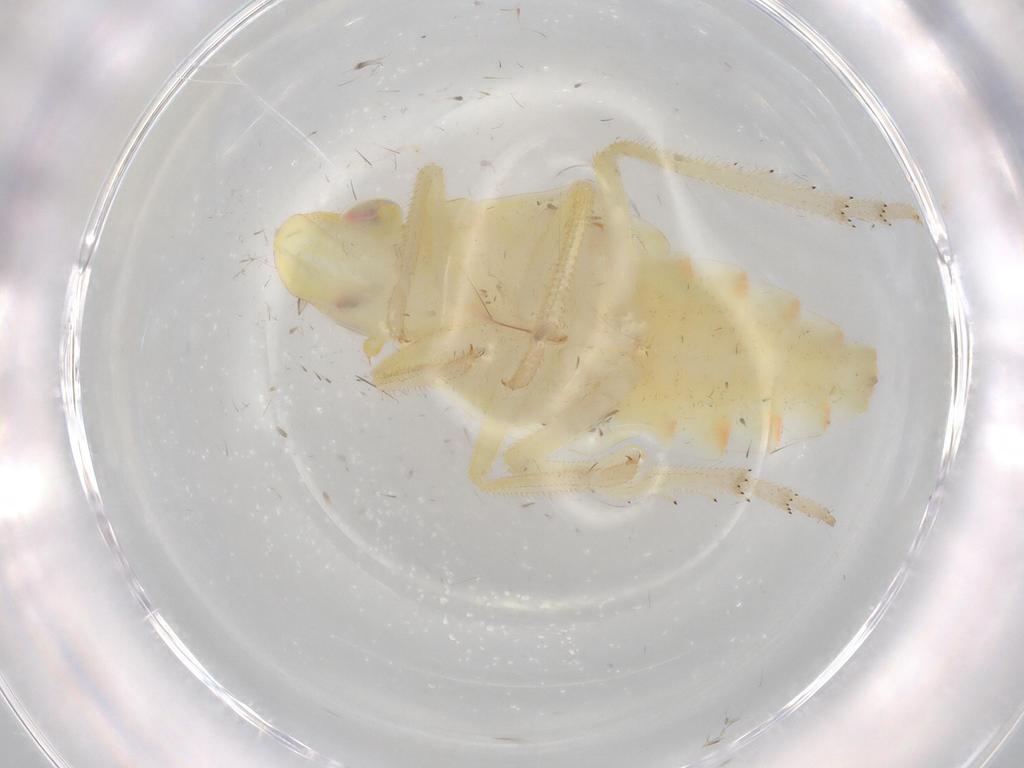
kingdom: Animalia
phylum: Arthropoda
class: Insecta
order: Hemiptera
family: Tropiduchidae
